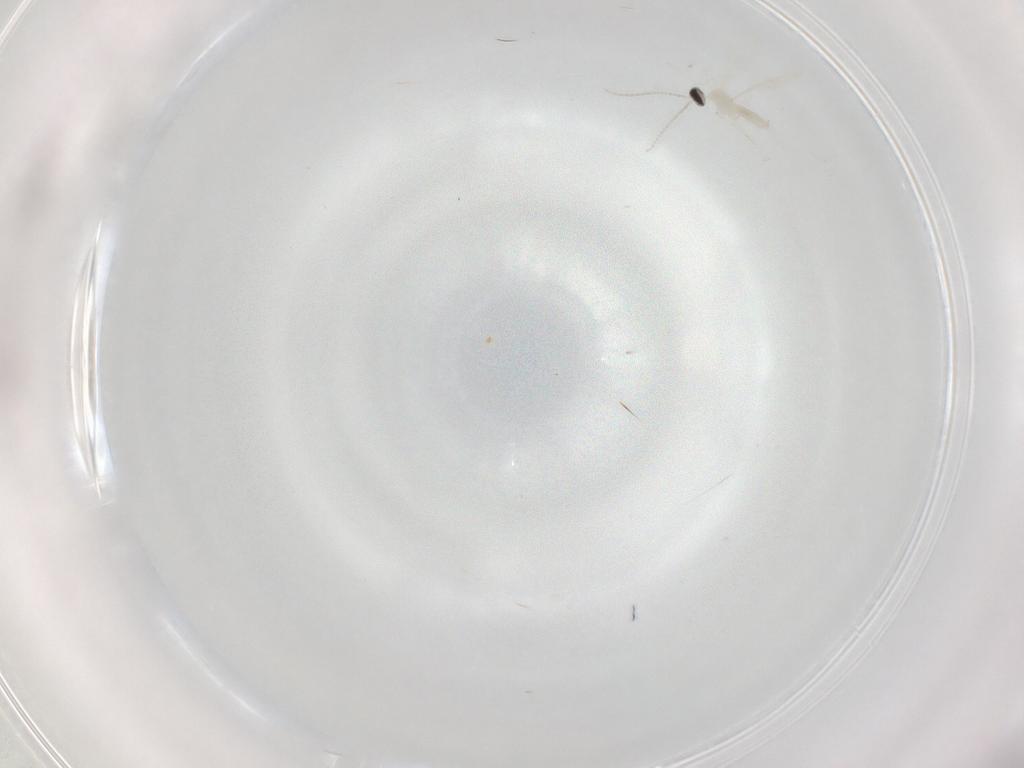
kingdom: Animalia
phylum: Arthropoda
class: Insecta
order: Diptera
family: Cecidomyiidae
